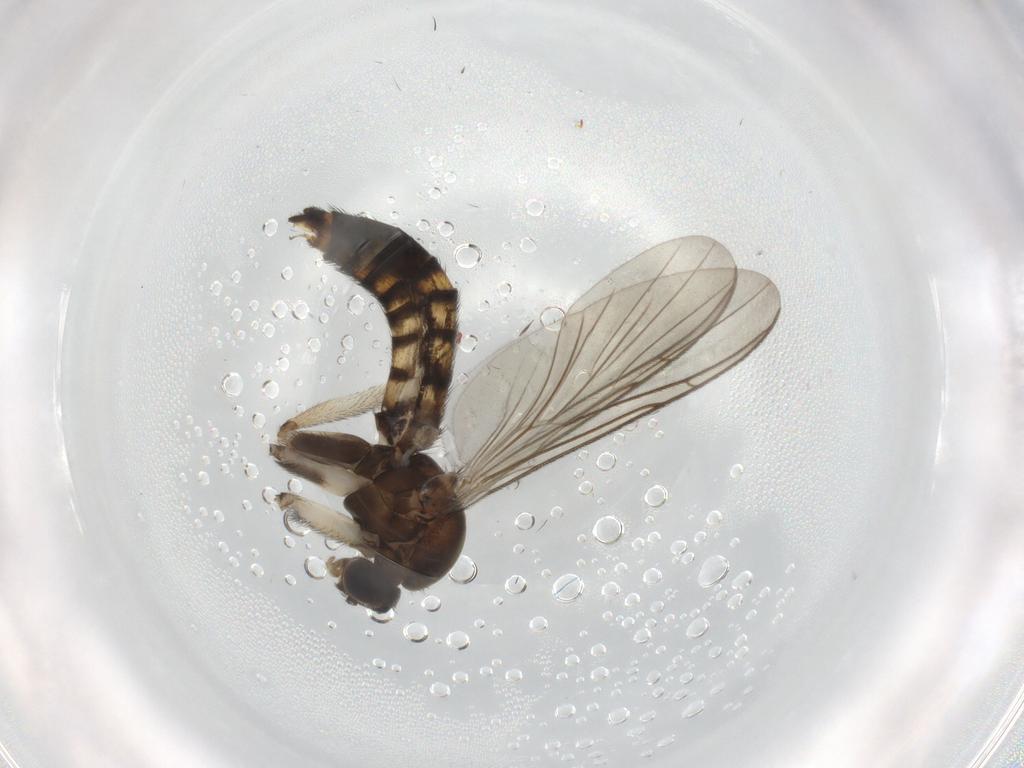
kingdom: Animalia
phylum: Arthropoda
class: Insecta
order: Diptera
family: Keroplatidae
